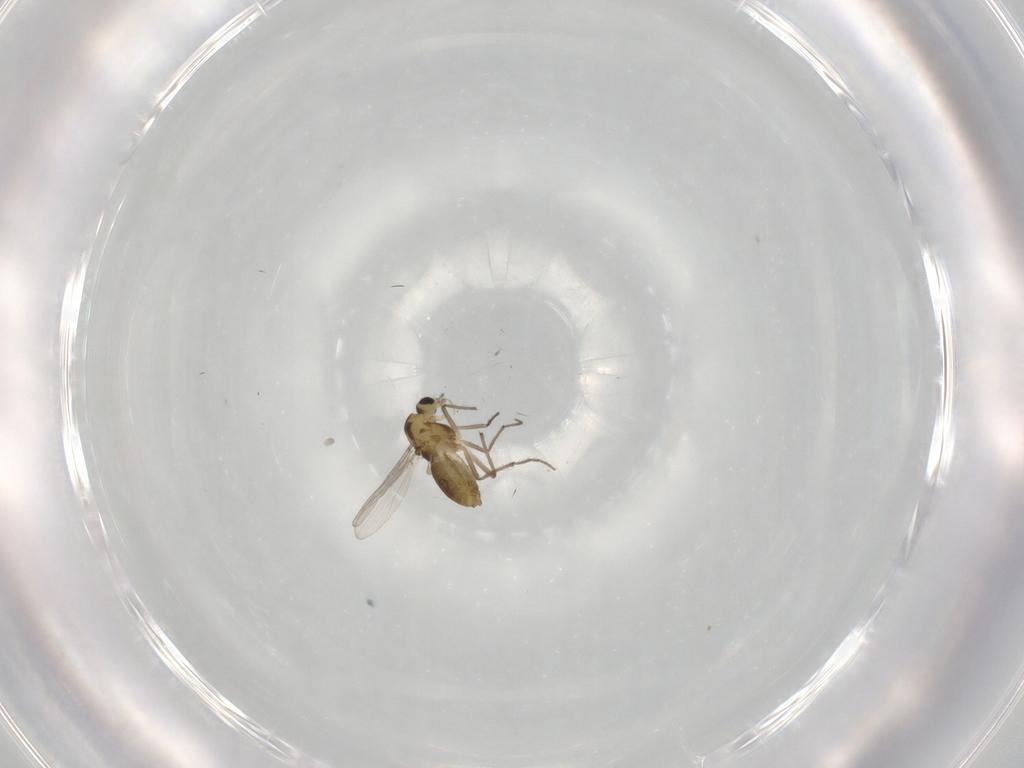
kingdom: Animalia
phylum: Arthropoda
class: Insecta
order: Diptera
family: Chironomidae
